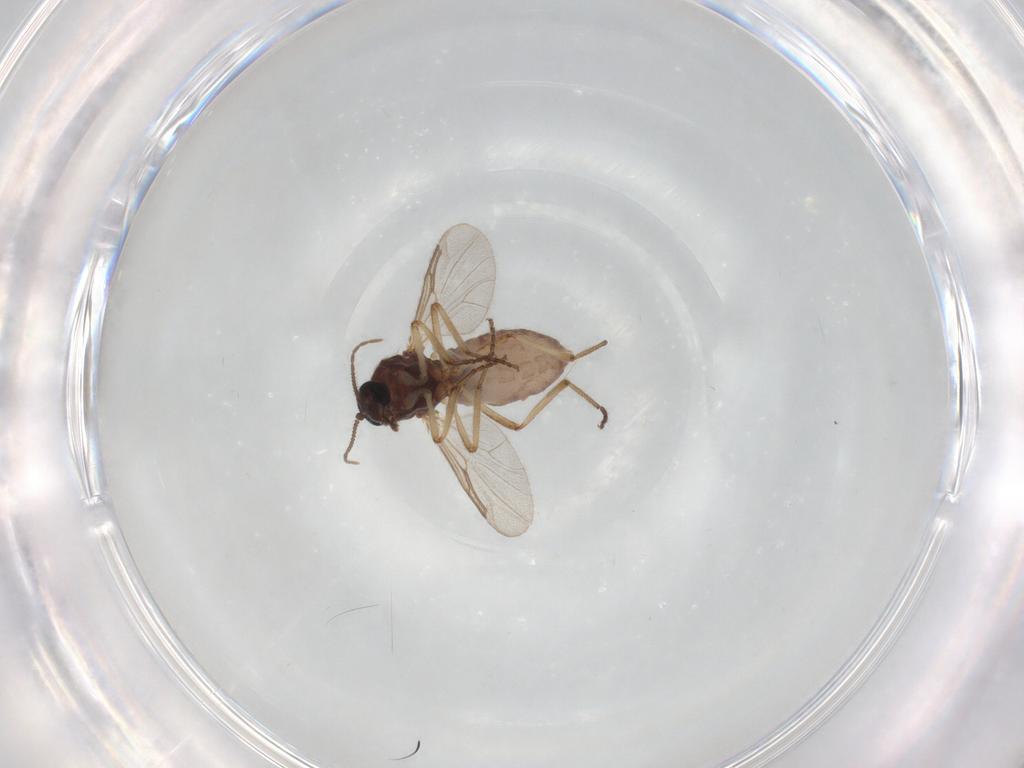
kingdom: Animalia
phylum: Arthropoda
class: Insecta
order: Diptera
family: Ceratopogonidae
